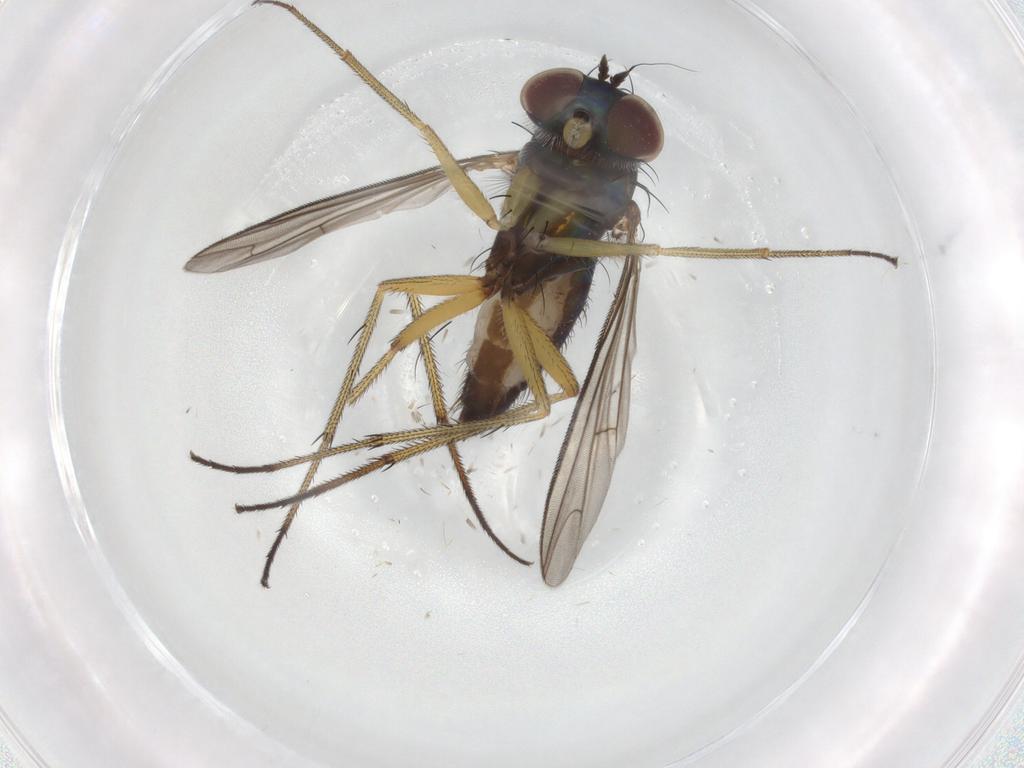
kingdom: Animalia
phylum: Arthropoda
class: Insecta
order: Diptera
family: Dolichopodidae
